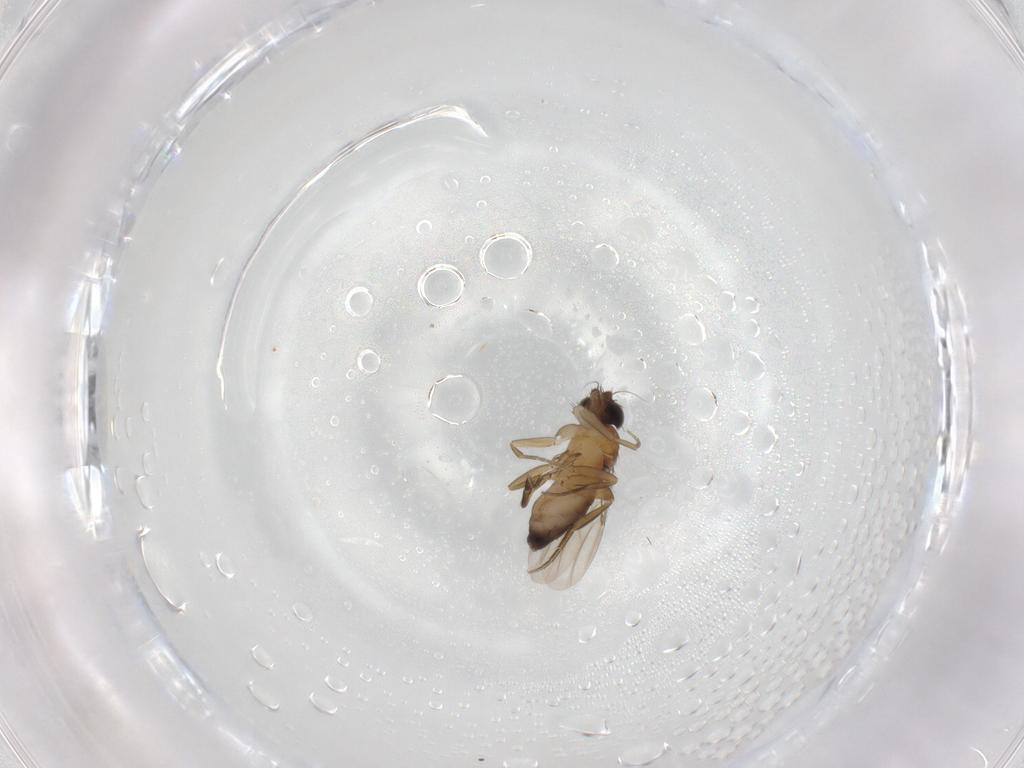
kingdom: Animalia
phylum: Arthropoda
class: Insecta
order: Diptera
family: Phoridae
